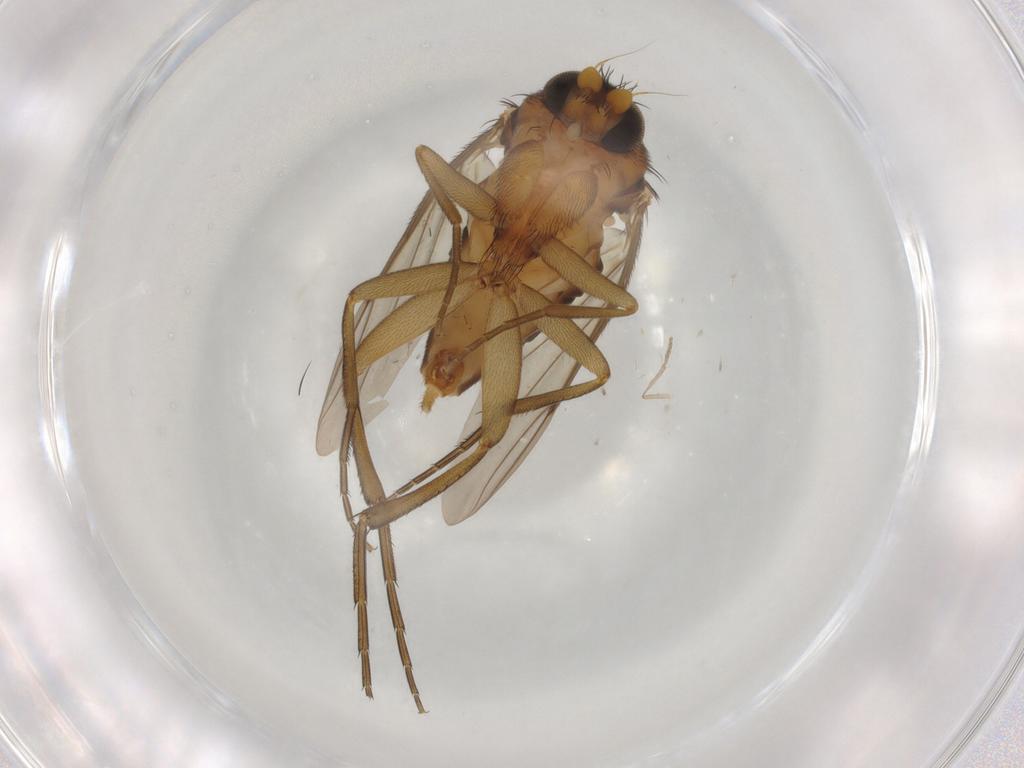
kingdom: Animalia
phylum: Arthropoda
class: Insecta
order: Diptera
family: Phoridae
